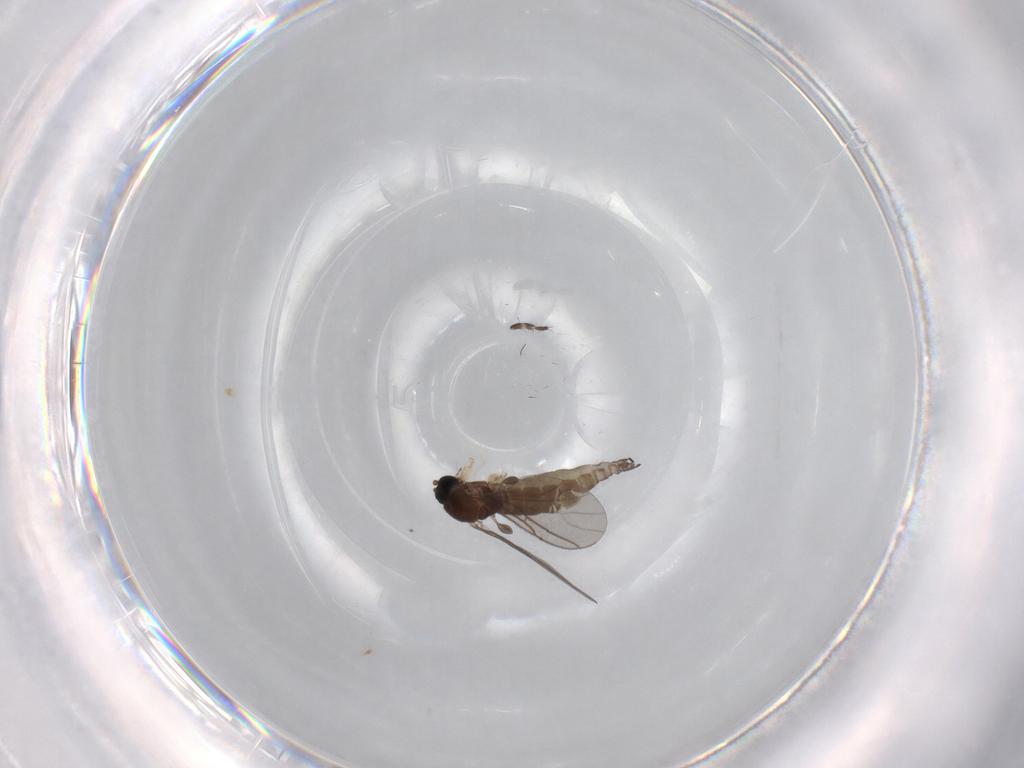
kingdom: Animalia
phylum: Arthropoda
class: Insecta
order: Diptera
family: Sciaridae
